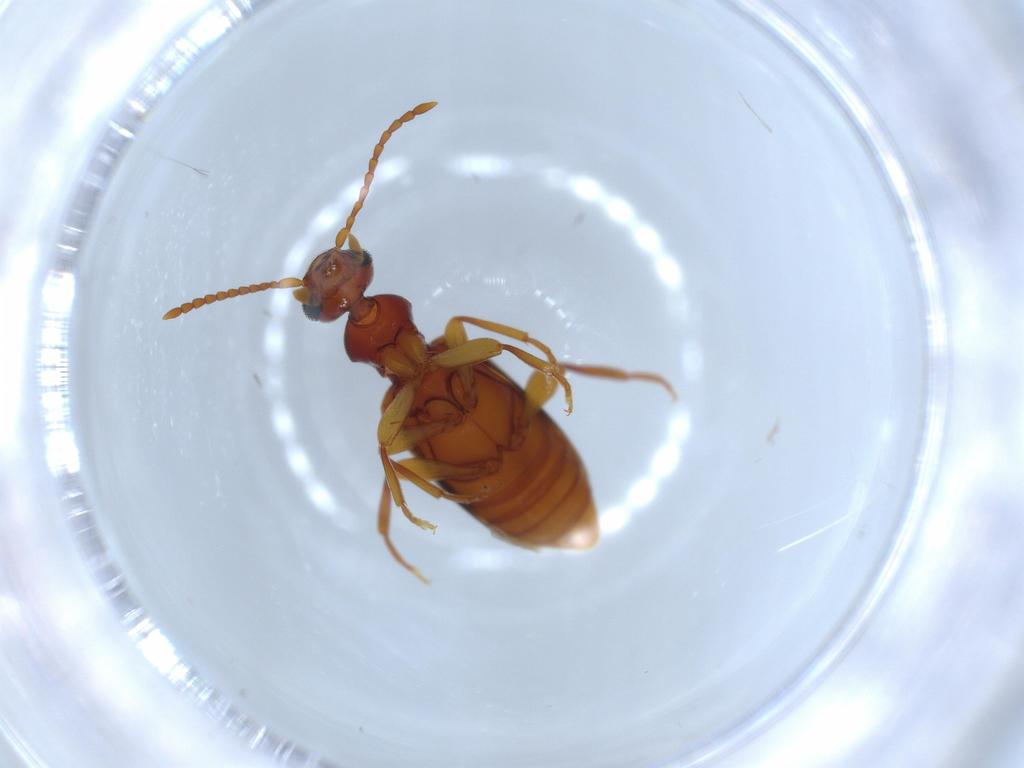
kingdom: Animalia
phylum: Arthropoda
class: Insecta
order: Coleoptera
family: Anthicidae
